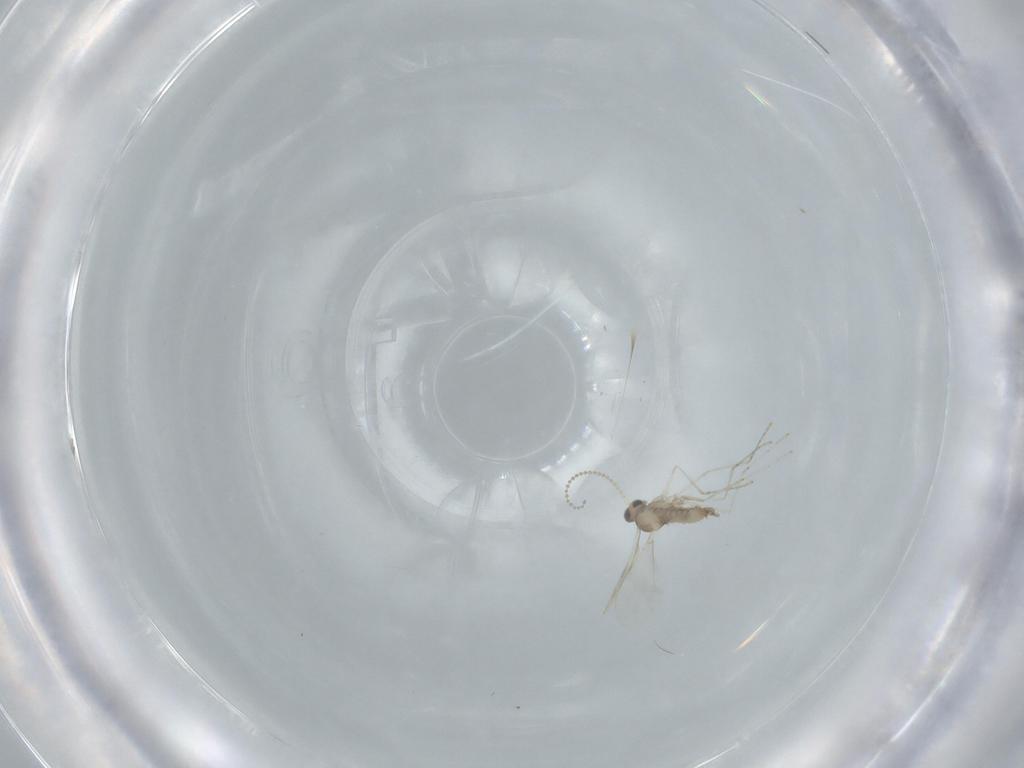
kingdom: Animalia
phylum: Arthropoda
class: Insecta
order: Diptera
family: Cecidomyiidae
